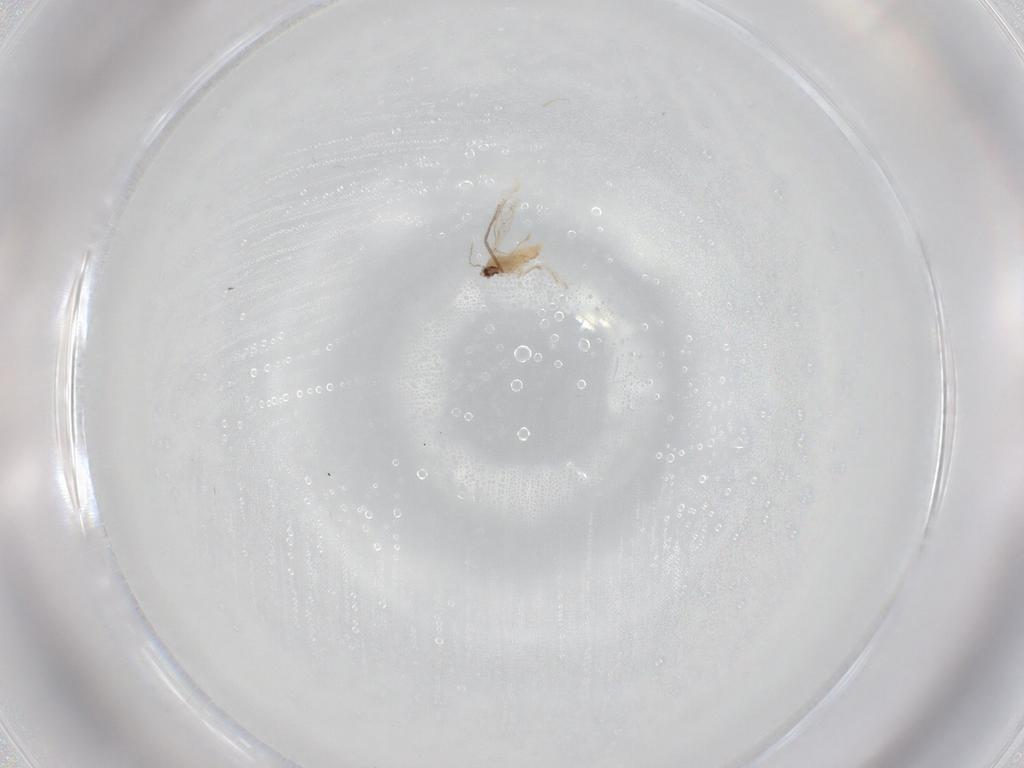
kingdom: Animalia
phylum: Arthropoda
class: Insecta
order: Diptera
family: Cecidomyiidae
